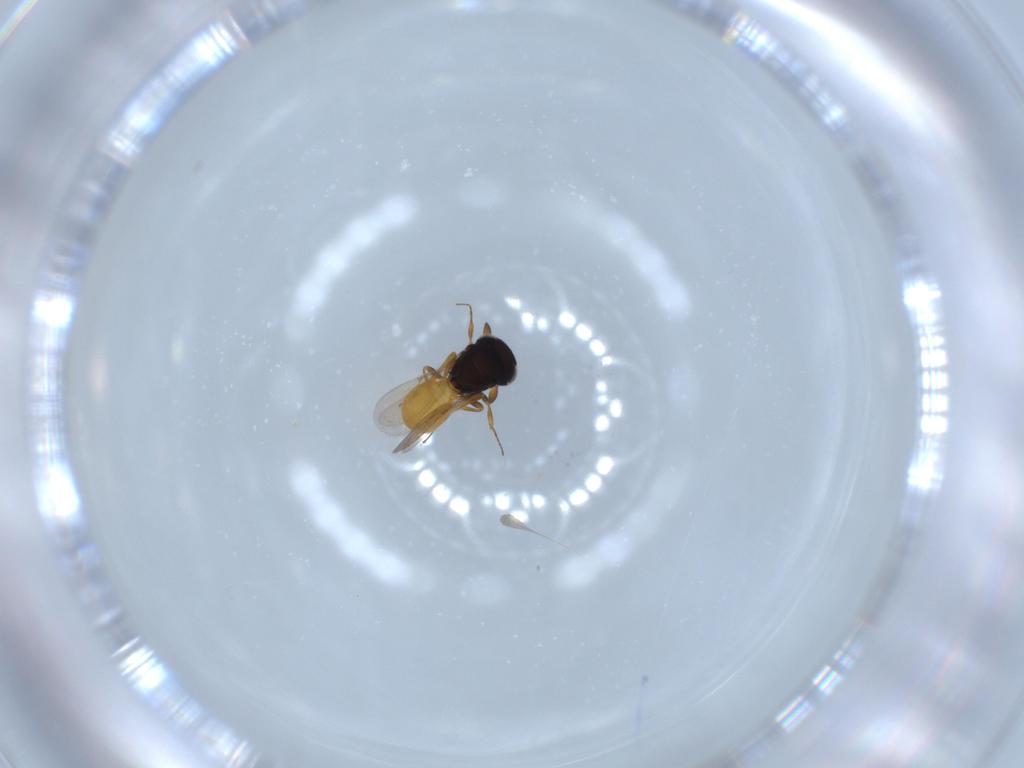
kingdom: Animalia
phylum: Arthropoda
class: Insecta
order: Hymenoptera
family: Scelionidae
